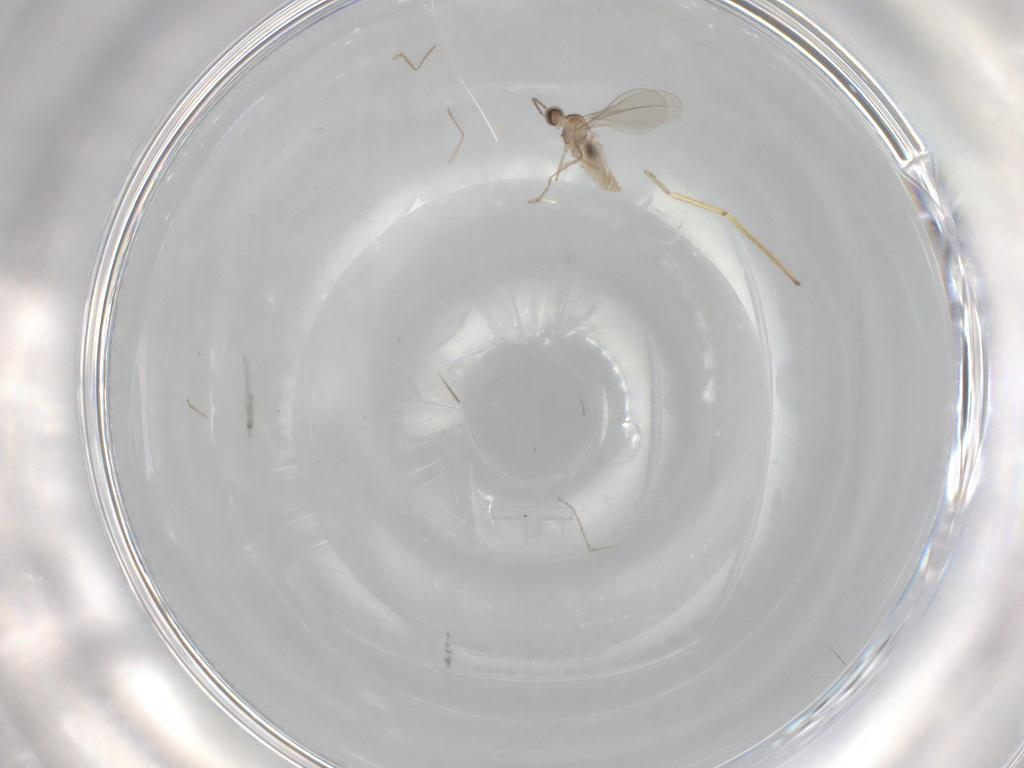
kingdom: Animalia
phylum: Arthropoda
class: Insecta
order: Diptera
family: Cecidomyiidae
